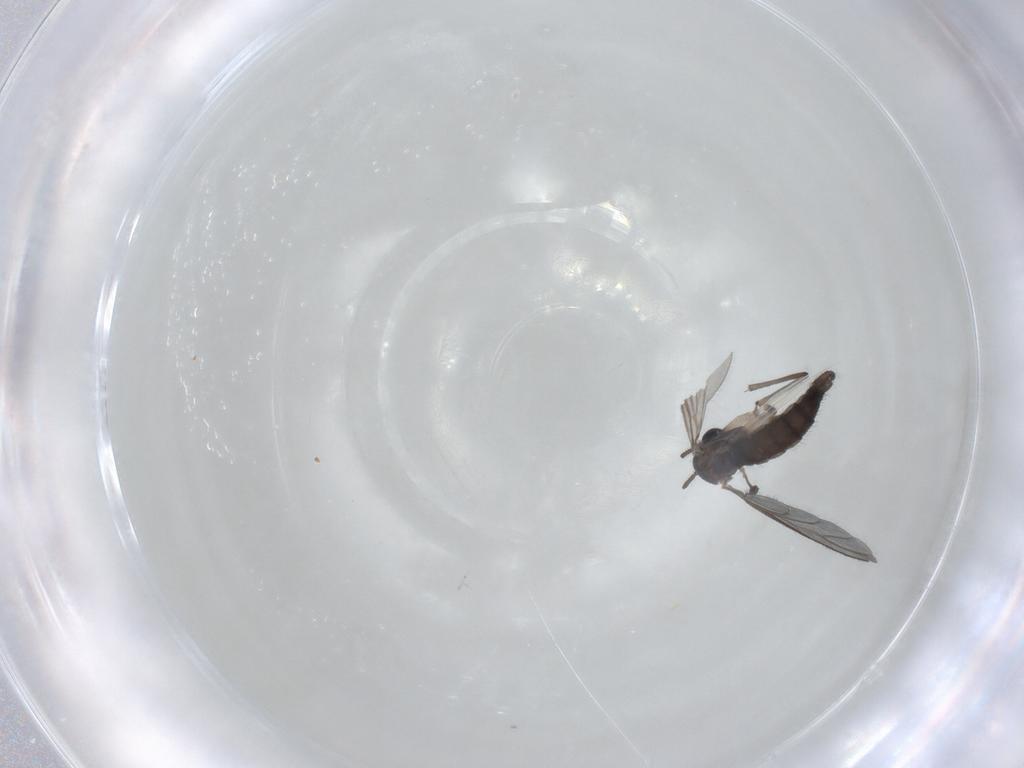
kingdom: Animalia
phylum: Arthropoda
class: Insecta
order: Diptera
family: Sciaridae
